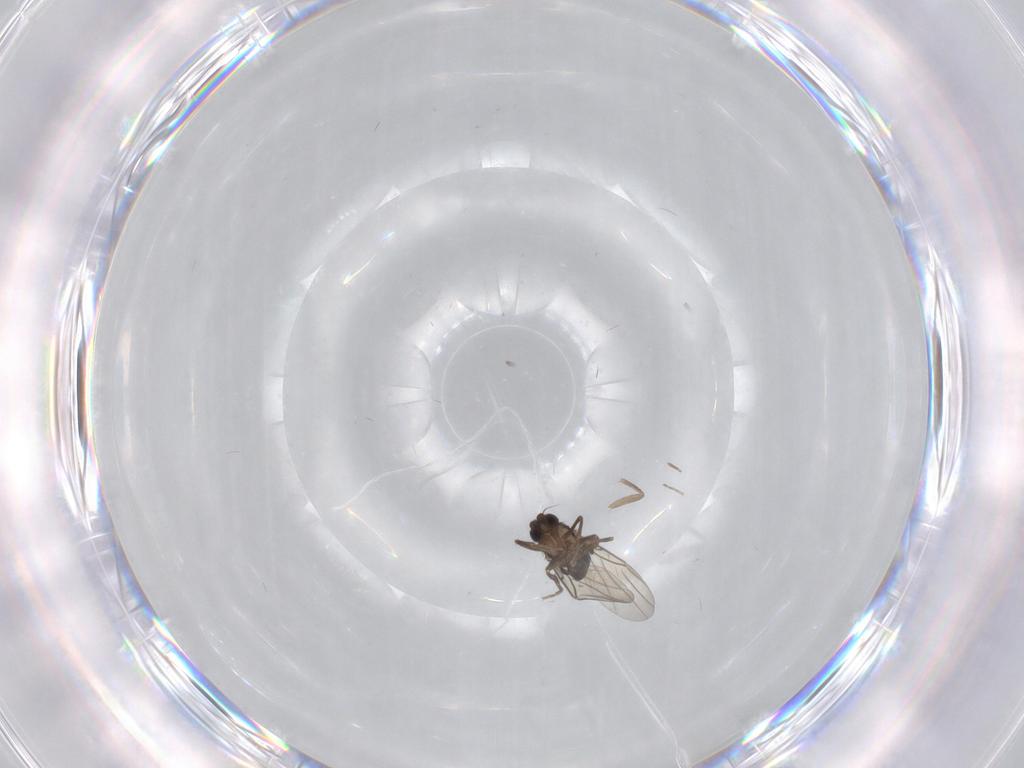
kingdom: Animalia
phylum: Arthropoda
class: Insecta
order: Diptera
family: Phoridae
